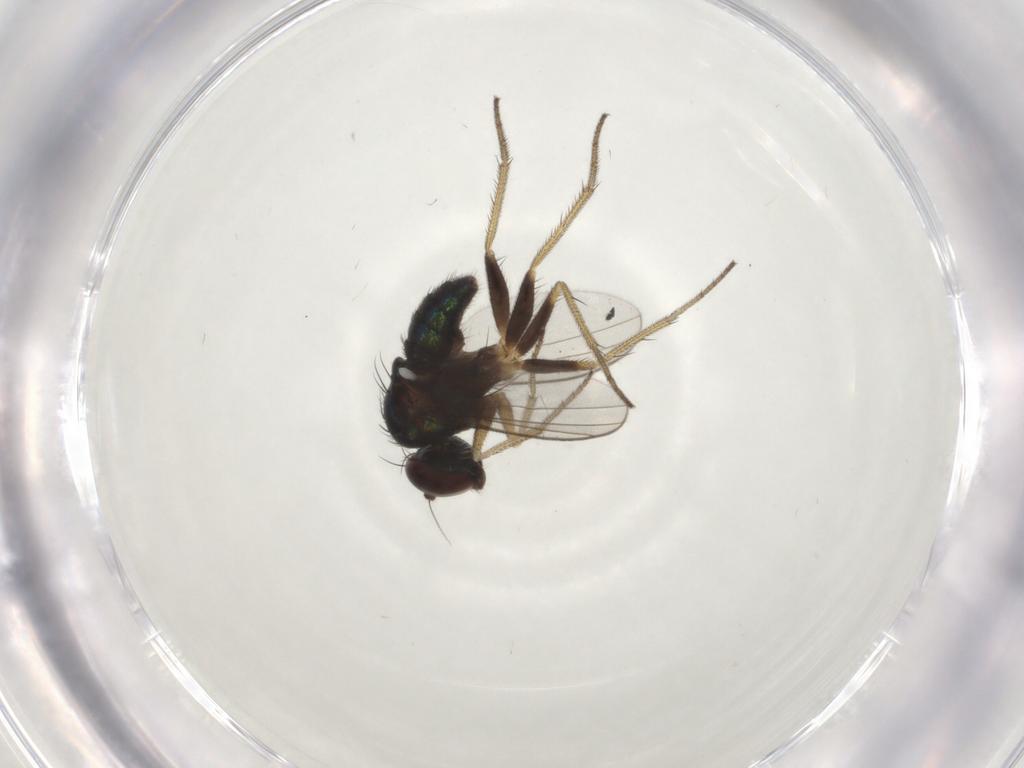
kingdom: Animalia
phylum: Arthropoda
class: Insecta
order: Diptera
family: Dolichopodidae
